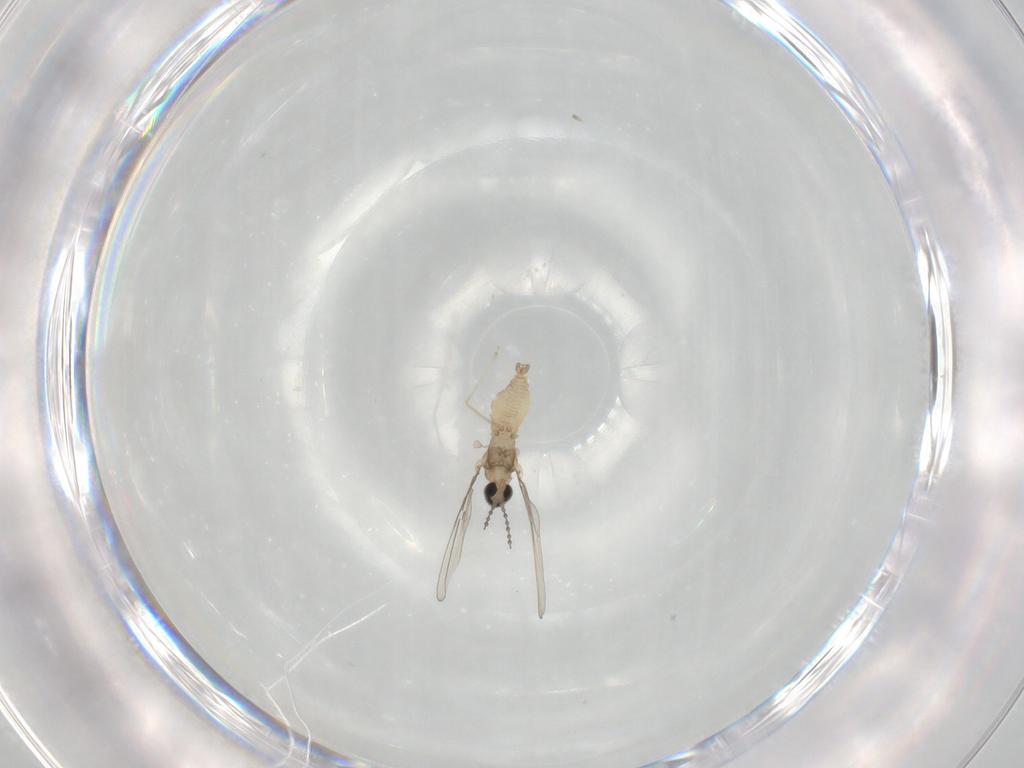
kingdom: Animalia
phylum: Arthropoda
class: Insecta
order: Diptera
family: Cecidomyiidae
